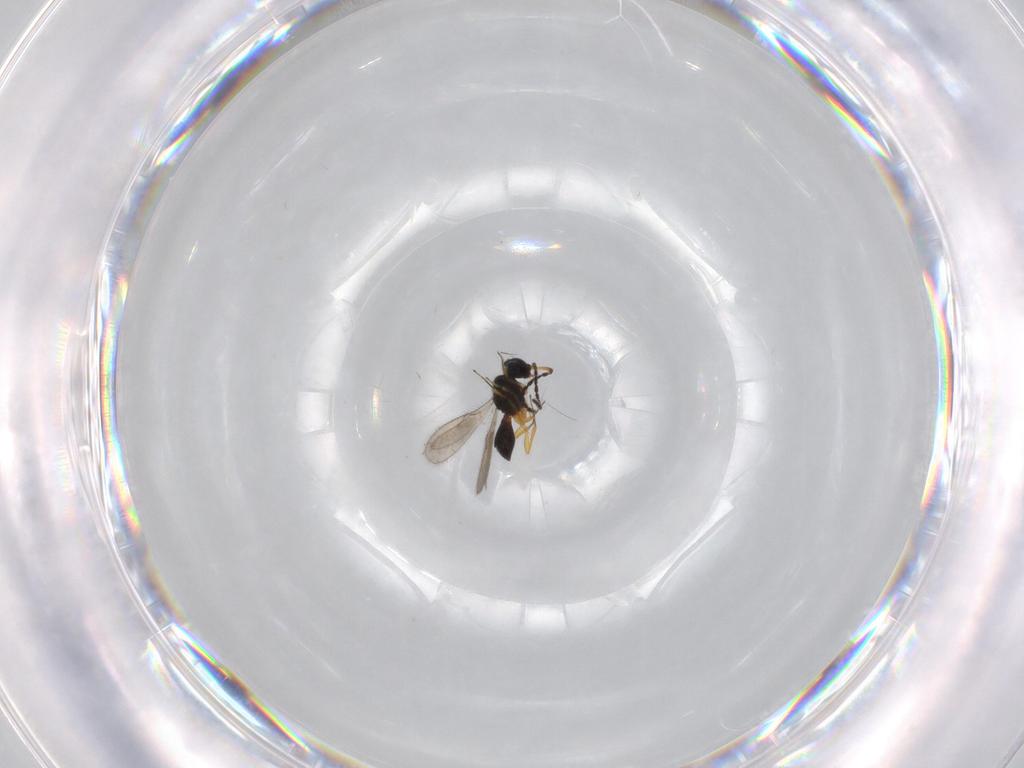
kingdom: Animalia
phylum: Arthropoda
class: Insecta
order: Hymenoptera
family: Scelionidae
